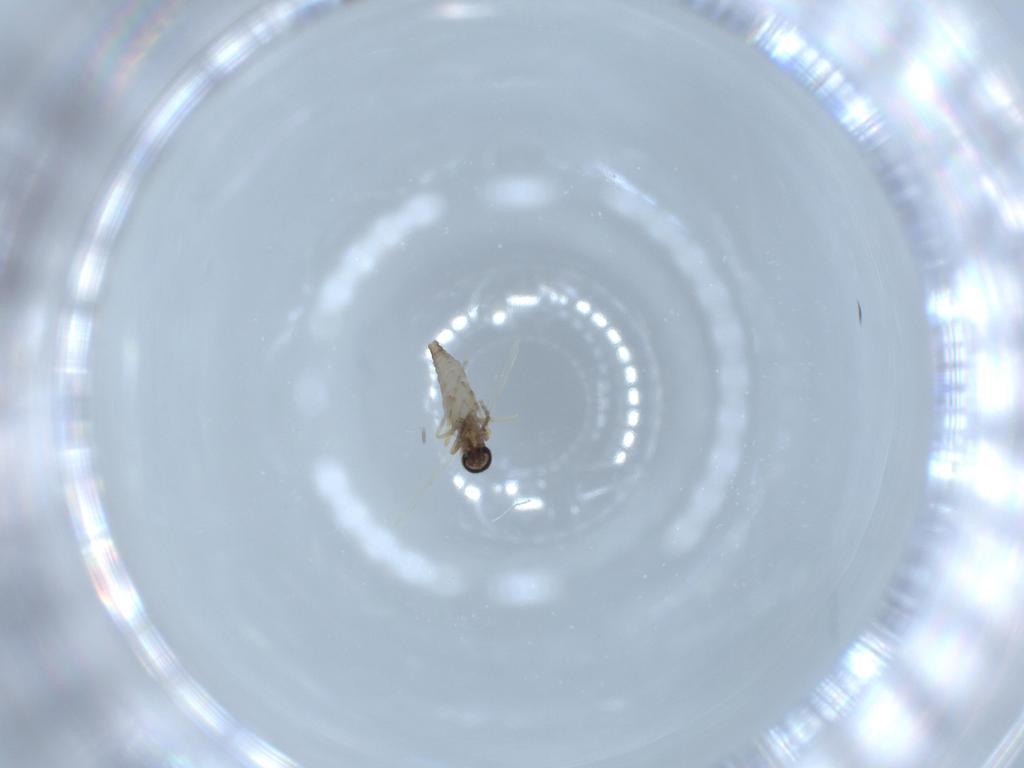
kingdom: Animalia
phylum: Arthropoda
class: Insecta
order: Diptera
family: Ceratopogonidae
